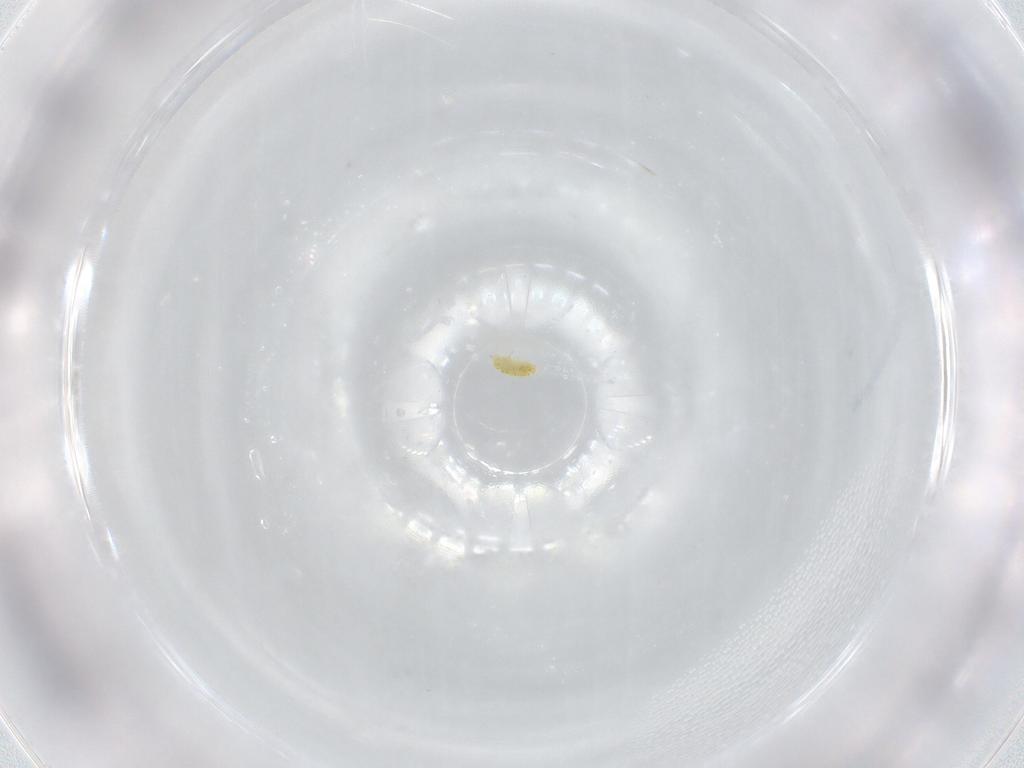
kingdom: Animalia
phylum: Arthropoda
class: Arachnida
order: Trombidiformes
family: Eupodidae
